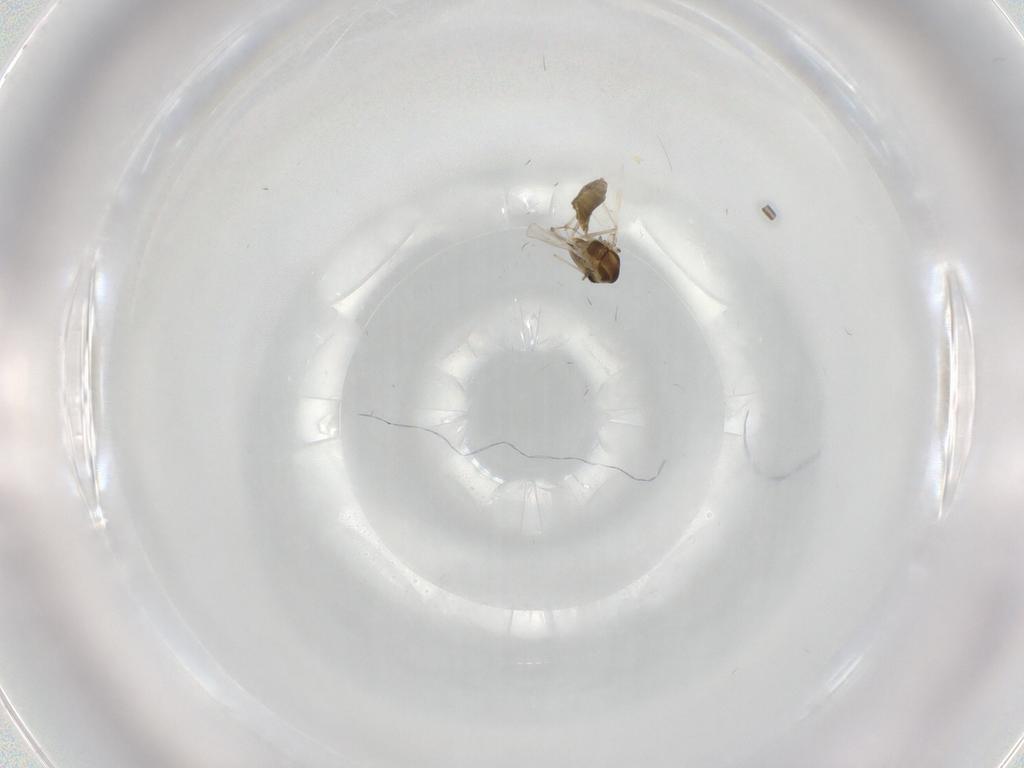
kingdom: Animalia
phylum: Arthropoda
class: Insecta
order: Diptera
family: Chironomidae
